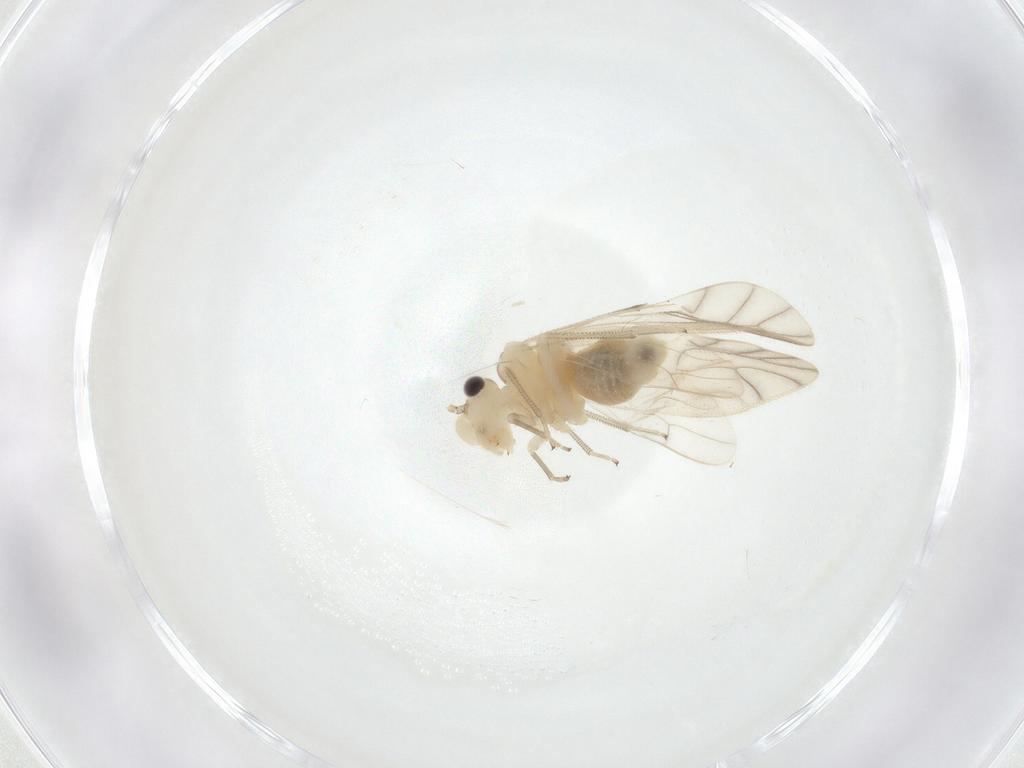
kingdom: Animalia
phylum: Arthropoda
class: Insecta
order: Psocodea
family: Caeciliusidae
